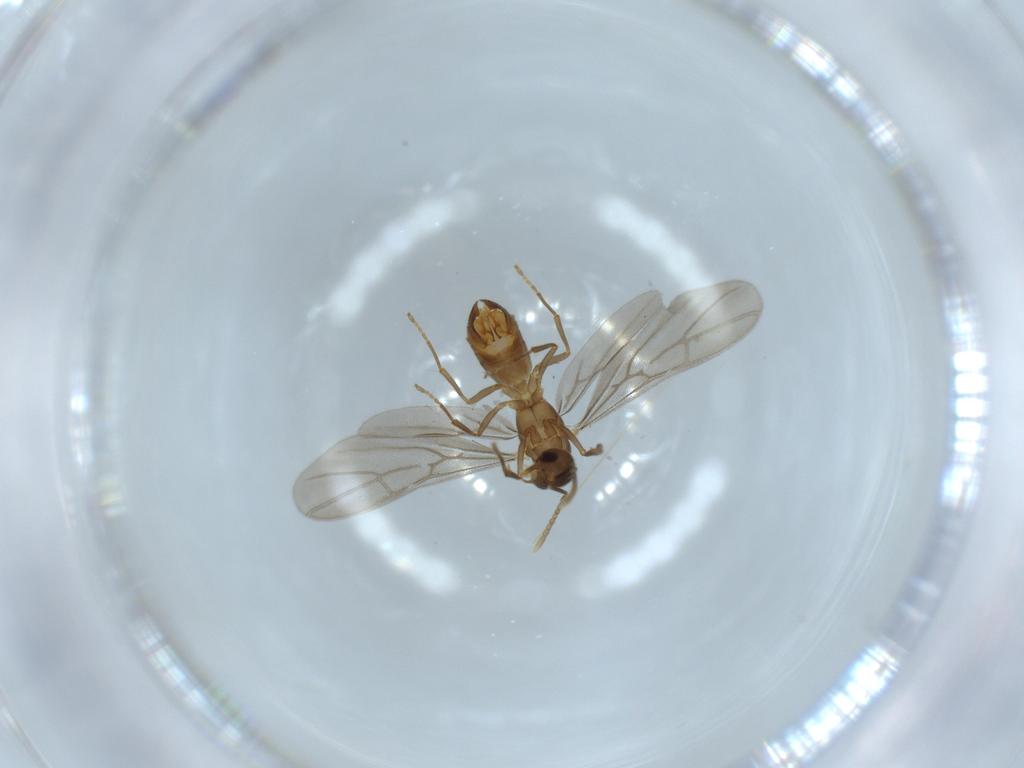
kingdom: Animalia
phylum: Arthropoda
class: Insecta
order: Hymenoptera
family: Formicidae
